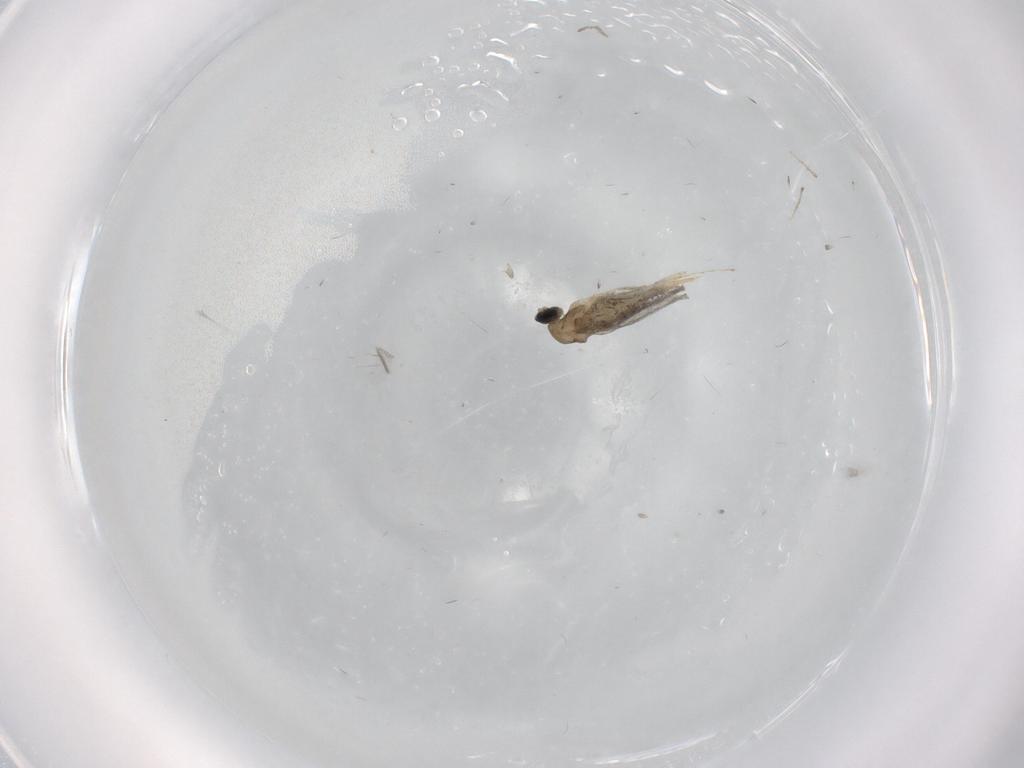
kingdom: Animalia
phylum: Arthropoda
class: Insecta
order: Diptera
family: Cecidomyiidae
